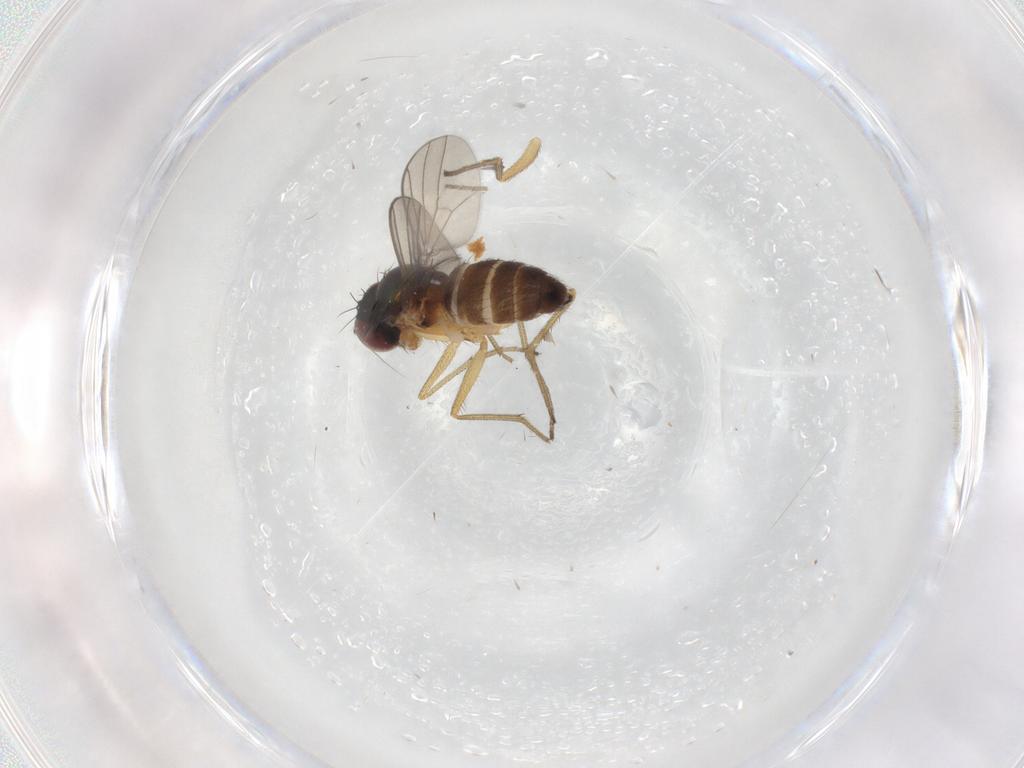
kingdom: Animalia
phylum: Arthropoda
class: Insecta
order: Diptera
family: Dolichopodidae
